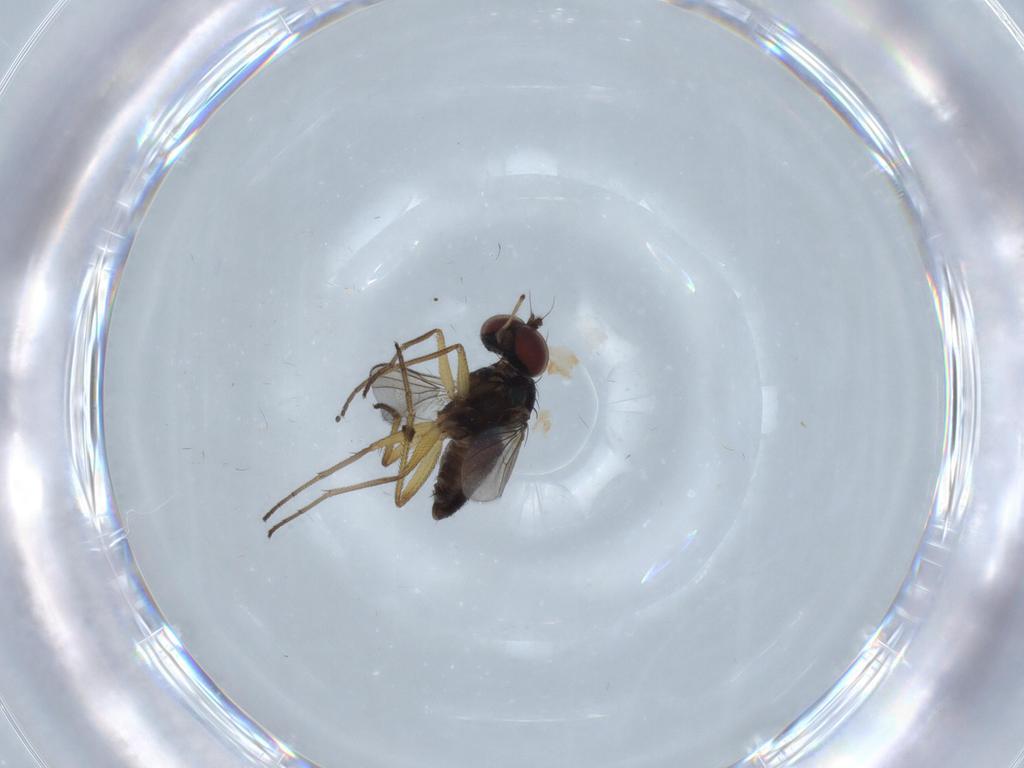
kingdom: Animalia
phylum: Arthropoda
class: Insecta
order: Diptera
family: Dolichopodidae
